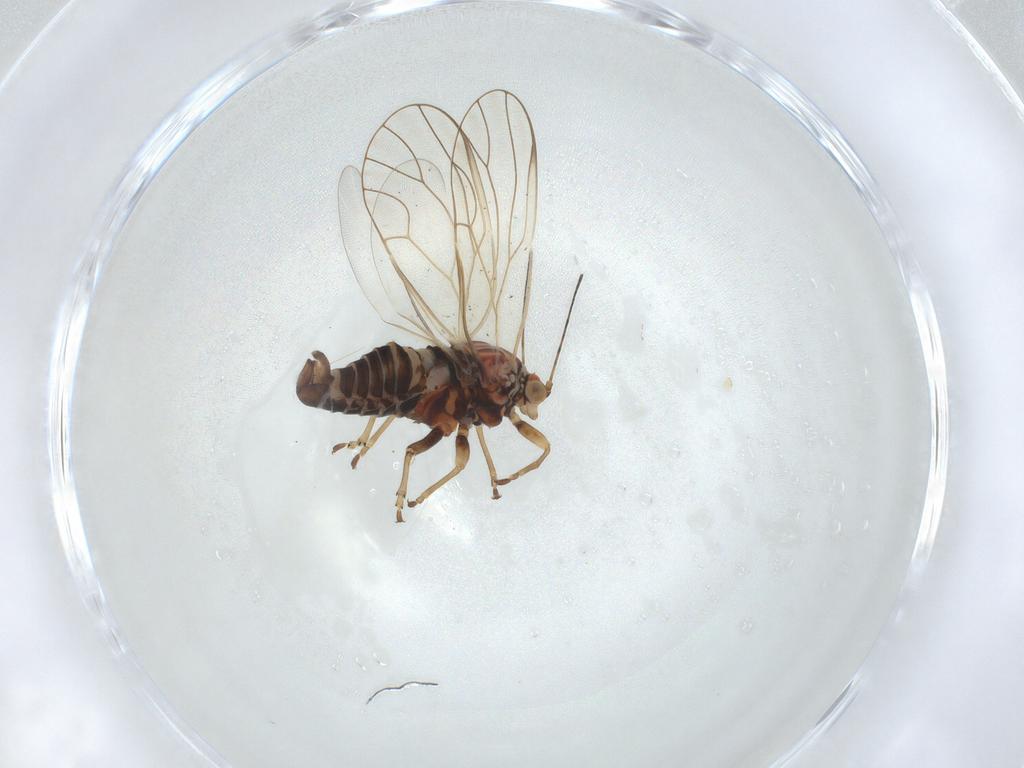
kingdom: Animalia
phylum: Arthropoda
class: Insecta
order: Hemiptera
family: Psyllidae
